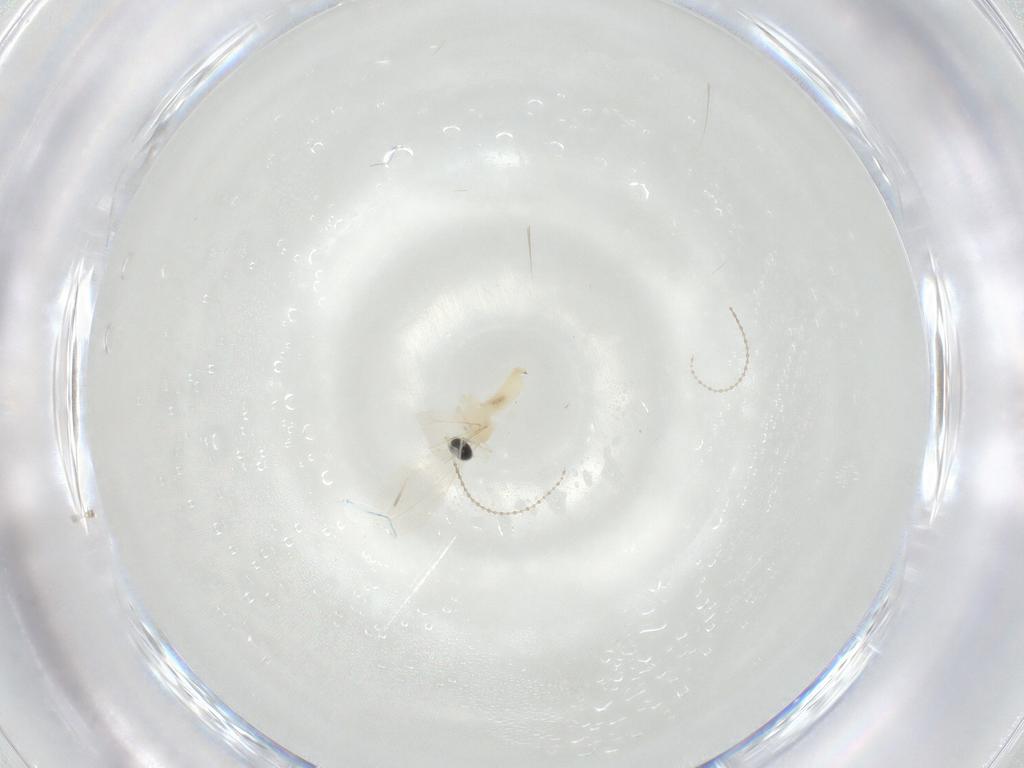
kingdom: Animalia
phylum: Arthropoda
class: Insecta
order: Diptera
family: Cecidomyiidae
